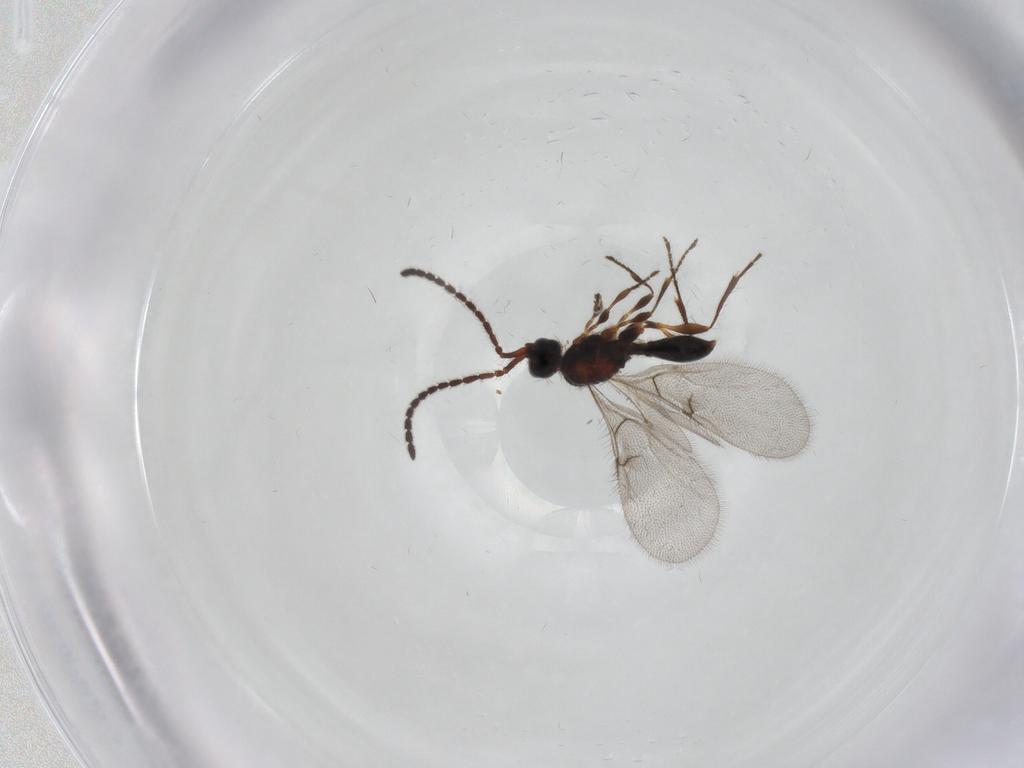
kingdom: Animalia
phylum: Arthropoda
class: Insecta
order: Hymenoptera
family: Diapriidae
